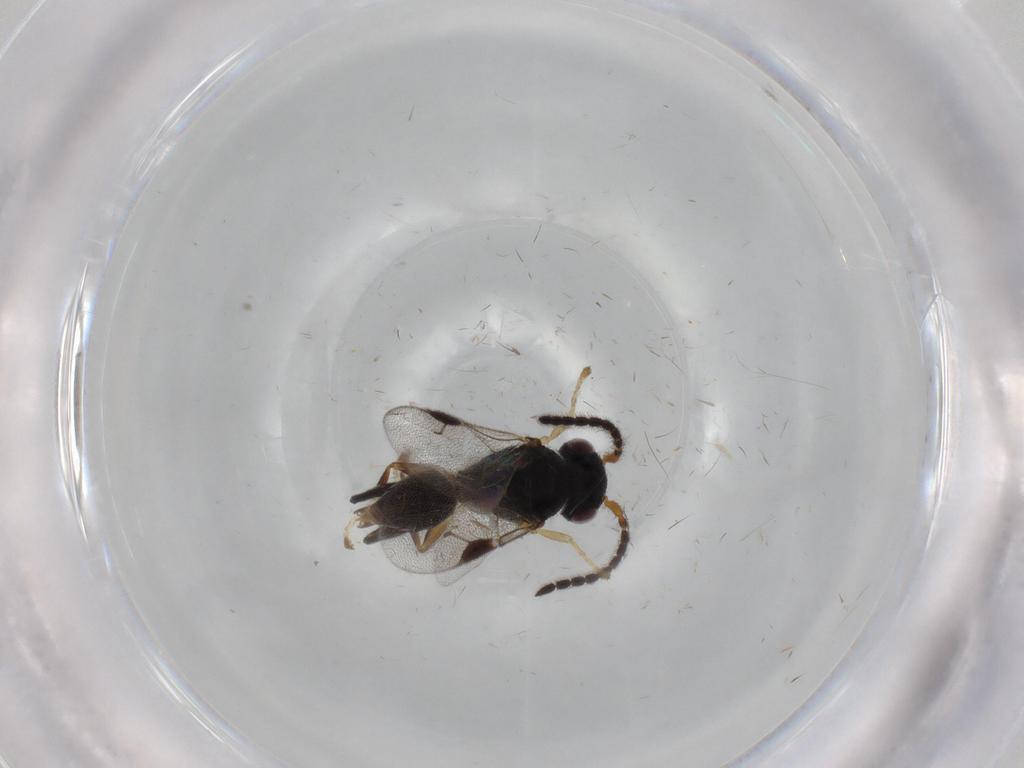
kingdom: Animalia
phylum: Arthropoda
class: Insecta
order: Hymenoptera
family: Dryinidae
